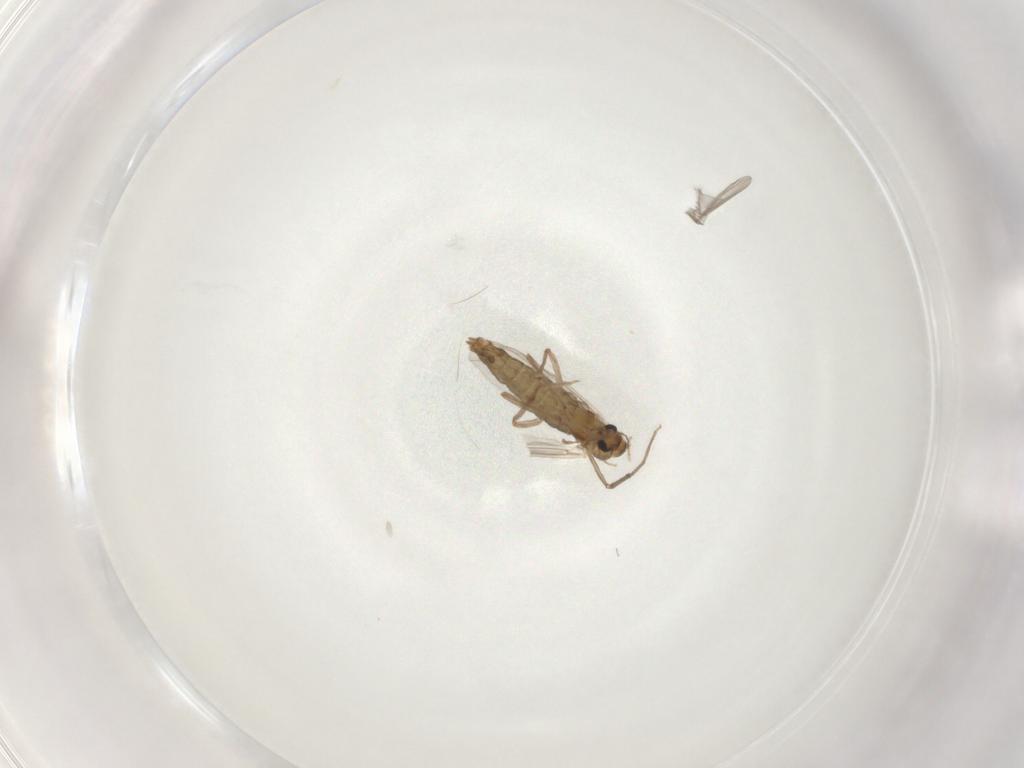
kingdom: Animalia
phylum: Arthropoda
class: Insecta
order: Diptera
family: Chironomidae
